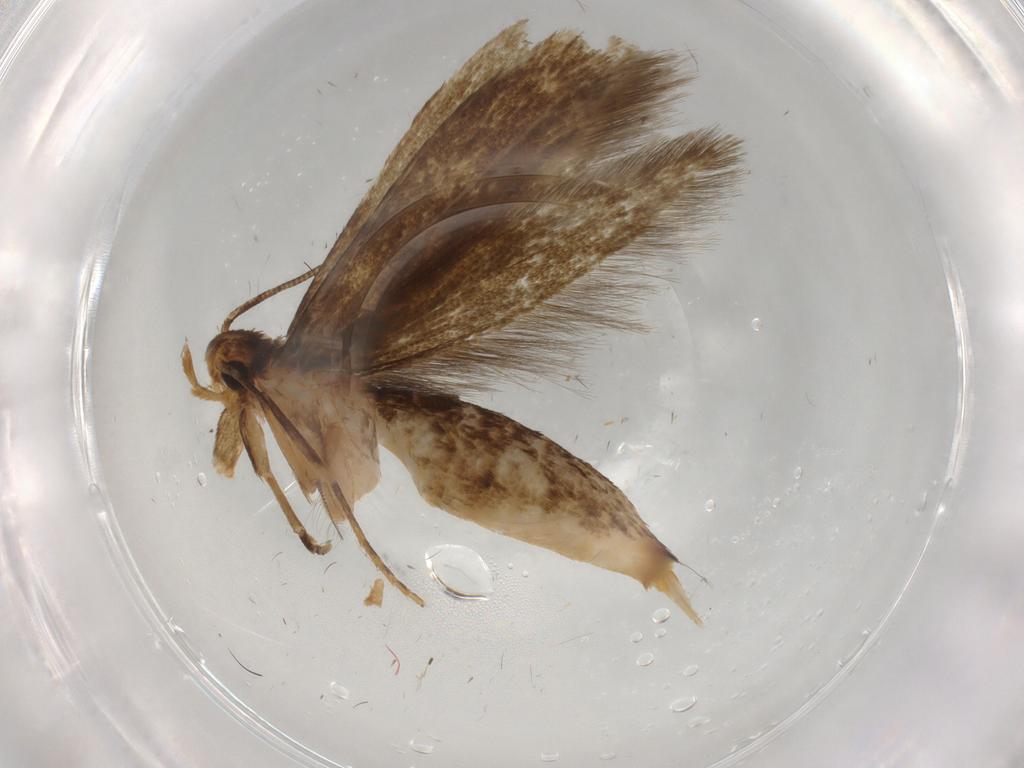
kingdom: Animalia
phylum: Arthropoda
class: Insecta
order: Lepidoptera
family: Tineidae
